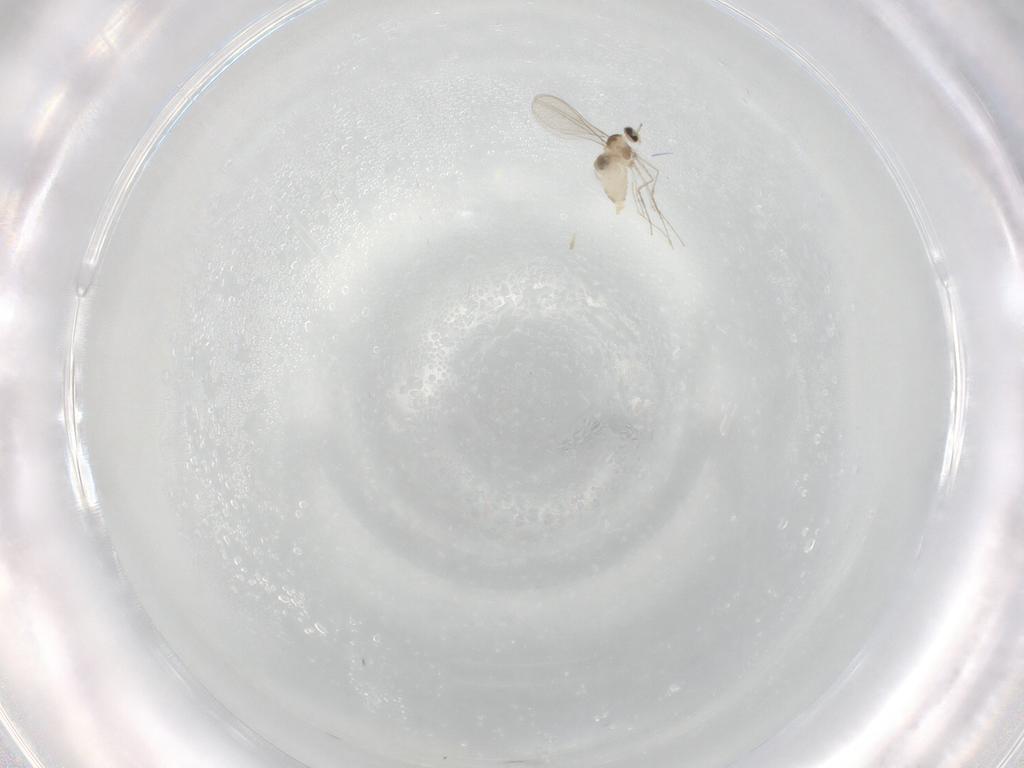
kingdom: Animalia
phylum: Arthropoda
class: Insecta
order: Diptera
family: Cecidomyiidae
